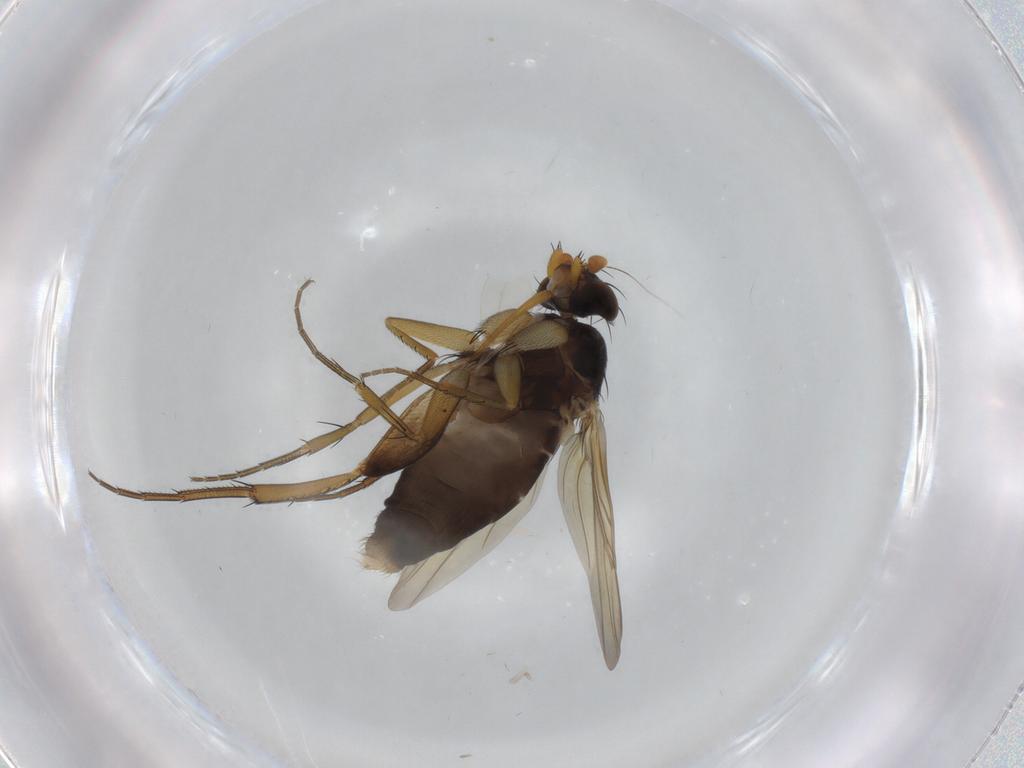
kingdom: Animalia
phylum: Arthropoda
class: Insecta
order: Diptera
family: Phoridae
